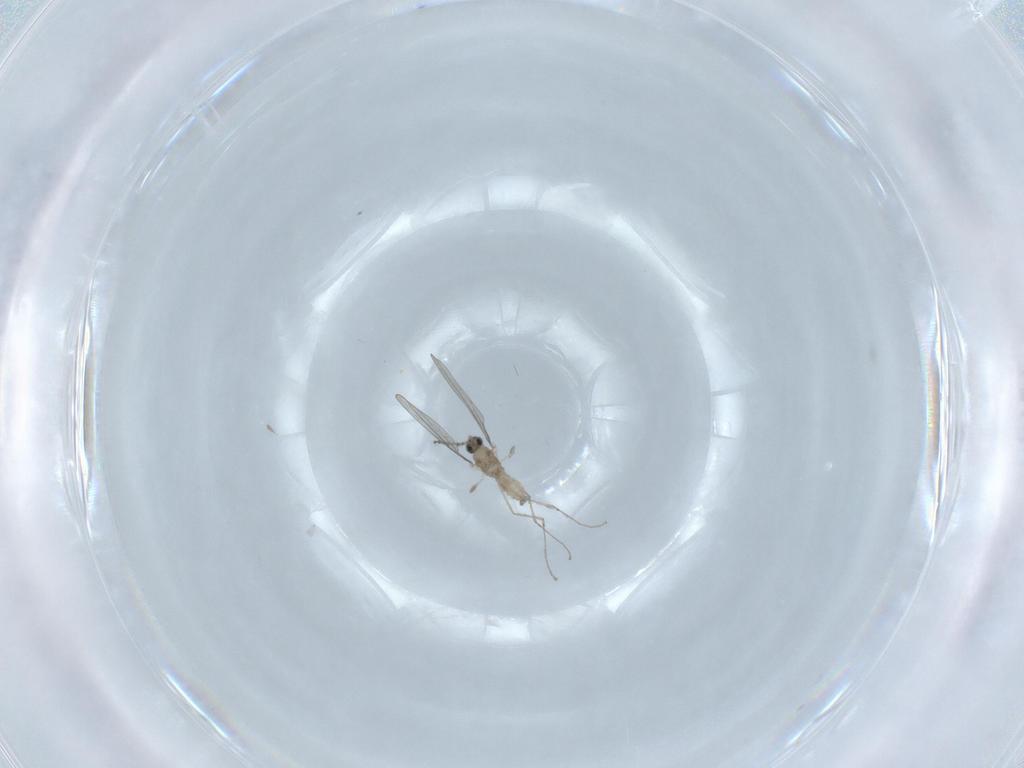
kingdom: Animalia
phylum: Arthropoda
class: Insecta
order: Diptera
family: Cecidomyiidae
